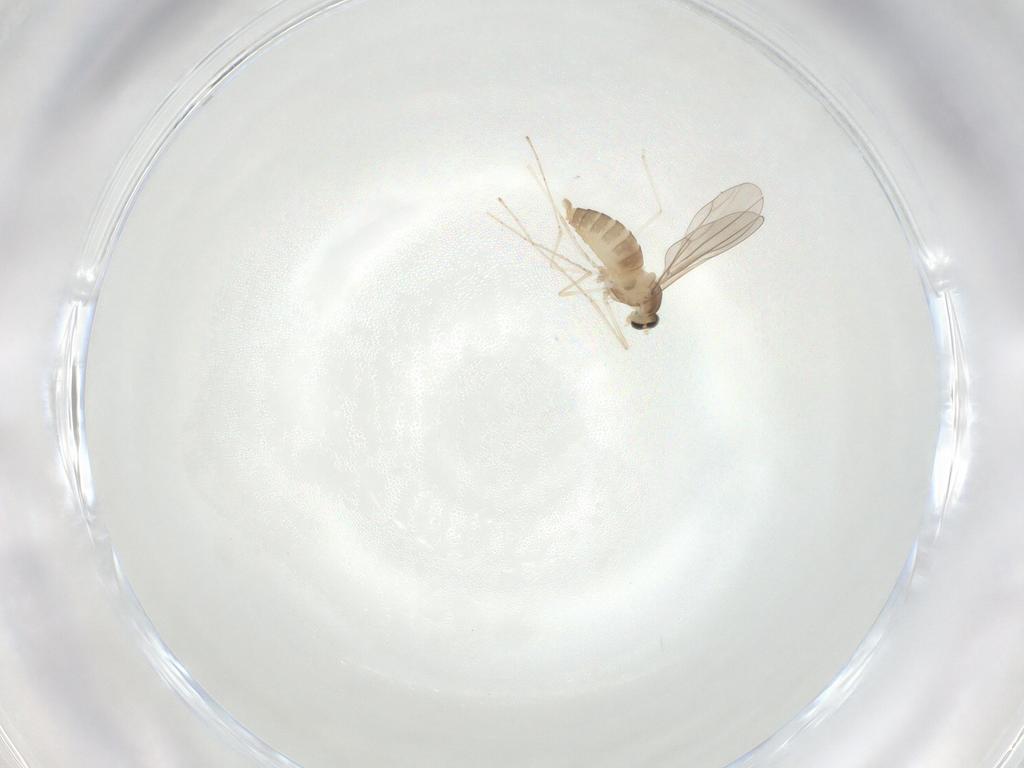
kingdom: Animalia
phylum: Arthropoda
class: Insecta
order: Diptera
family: Cecidomyiidae
